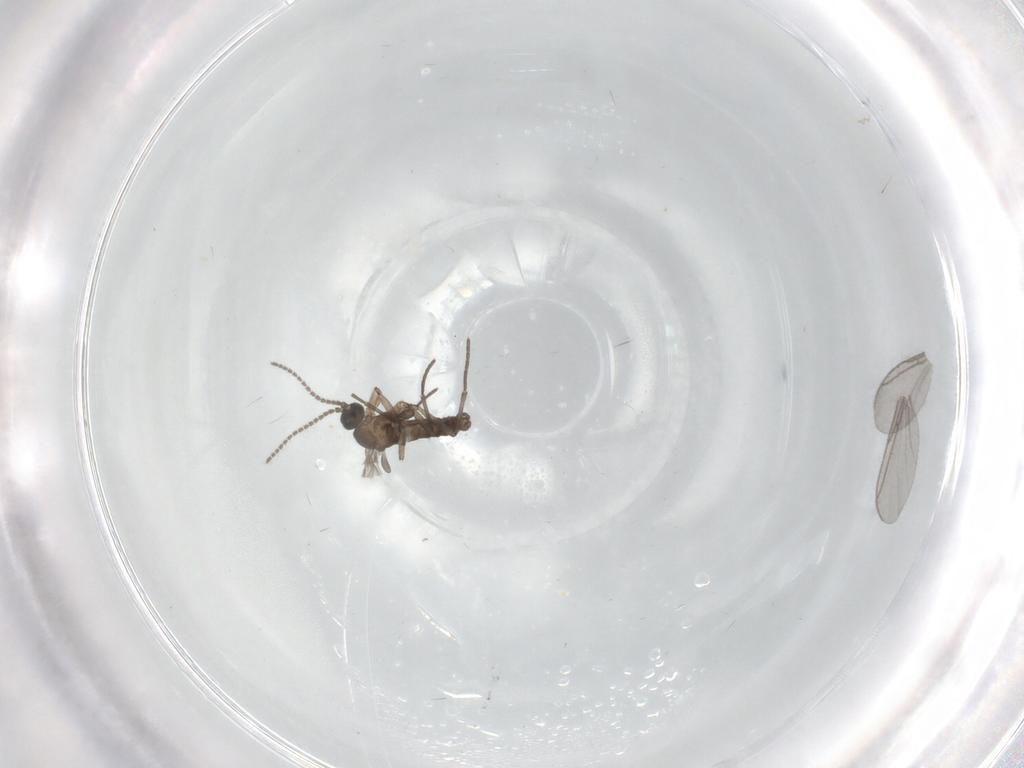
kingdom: Animalia
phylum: Arthropoda
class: Insecta
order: Diptera
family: Sciaridae
